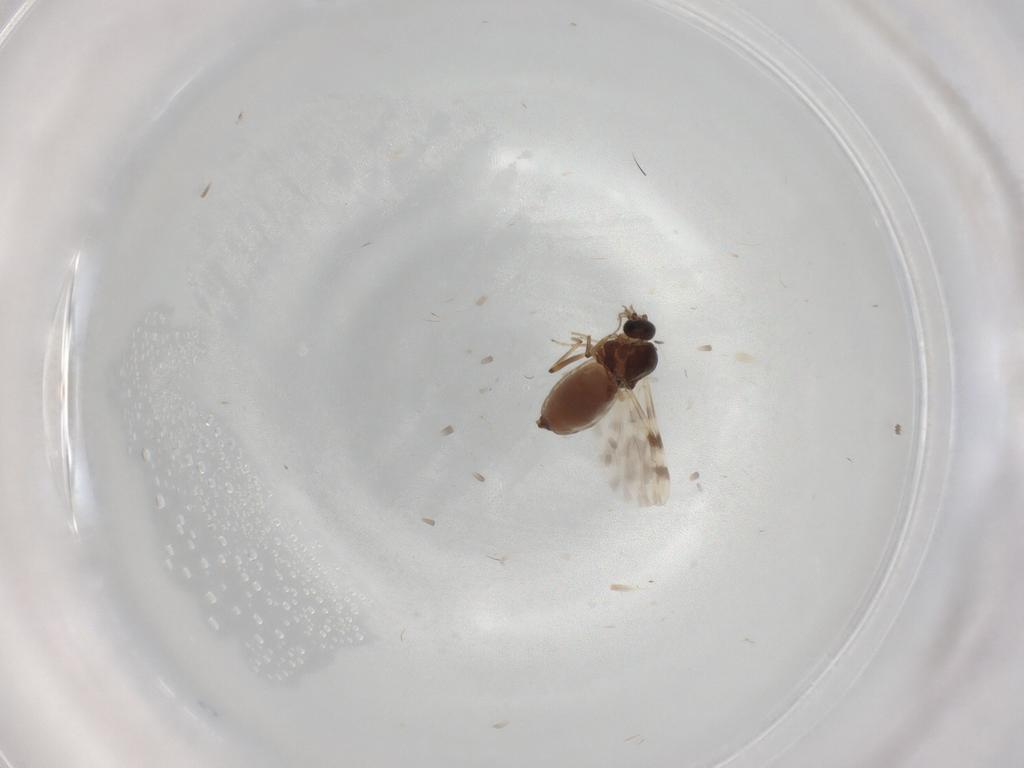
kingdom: Animalia
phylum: Arthropoda
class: Insecta
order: Diptera
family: Cecidomyiidae
